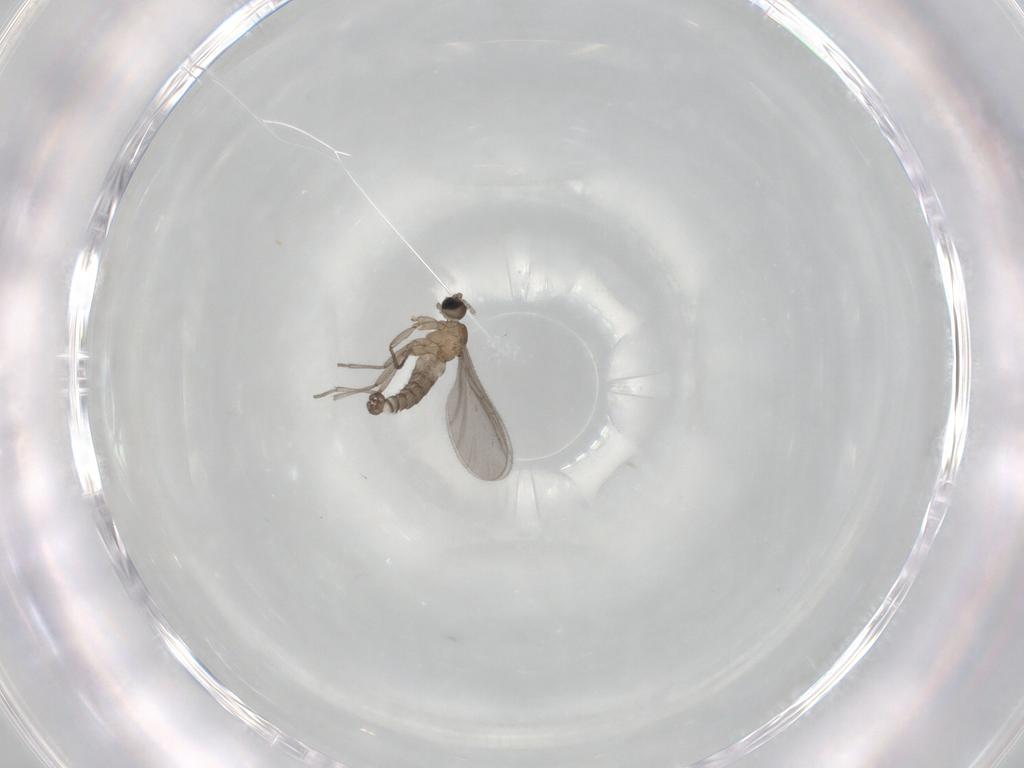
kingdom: Animalia
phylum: Arthropoda
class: Insecta
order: Diptera
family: Sciaridae
